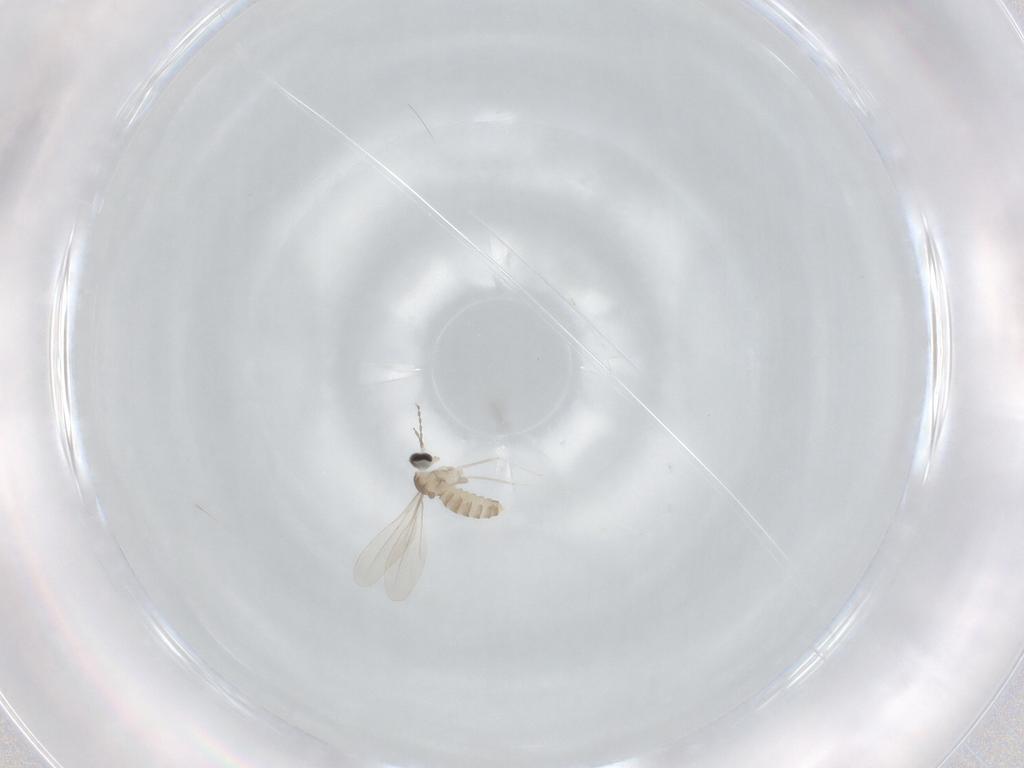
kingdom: Animalia
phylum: Arthropoda
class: Insecta
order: Diptera
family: Cecidomyiidae
